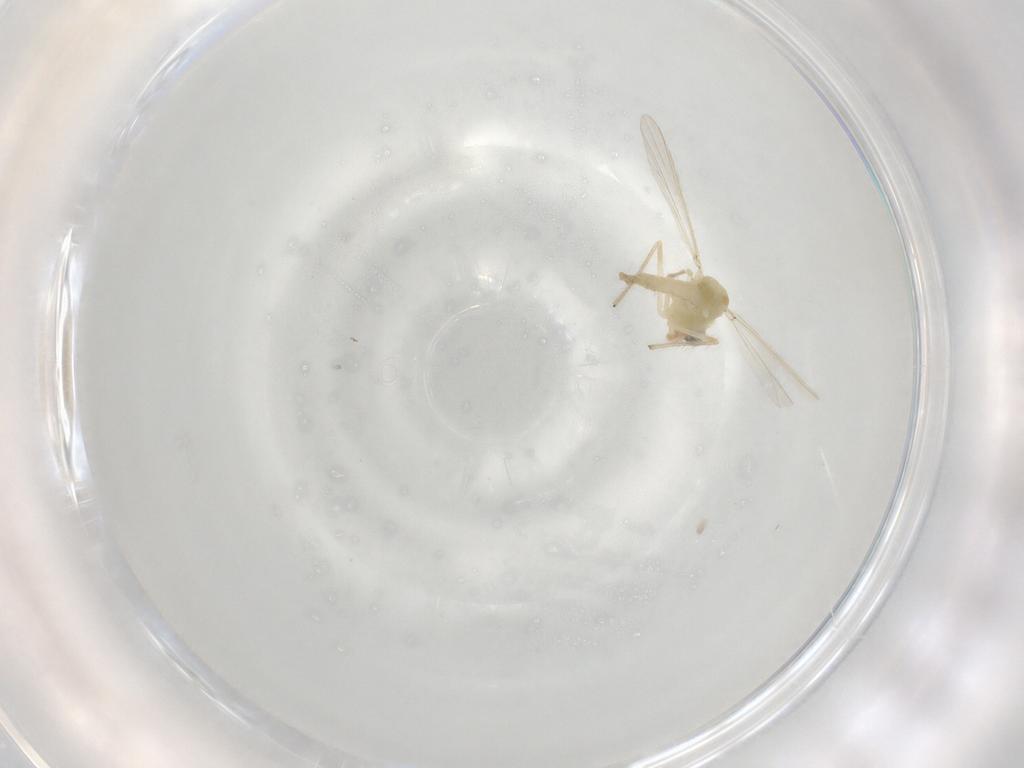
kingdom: Animalia
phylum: Arthropoda
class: Insecta
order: Diptera
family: Chironomidae
